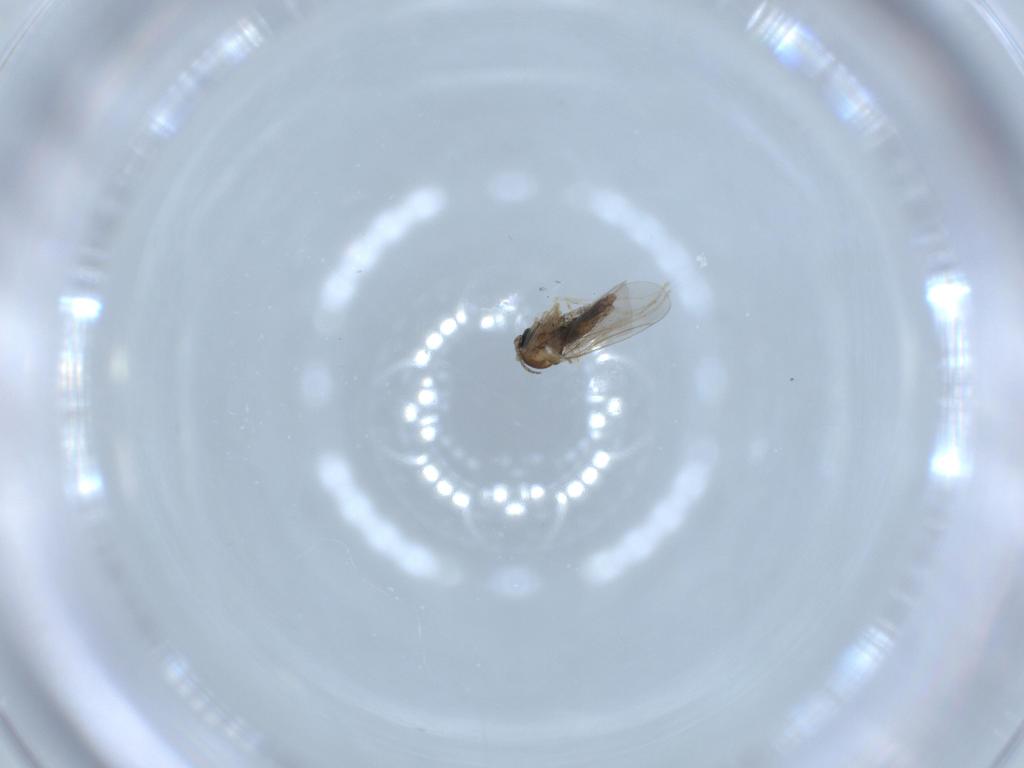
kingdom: Animalia
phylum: Arthropoda
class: Insecta
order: Diptera
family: Cecidomyiidae
